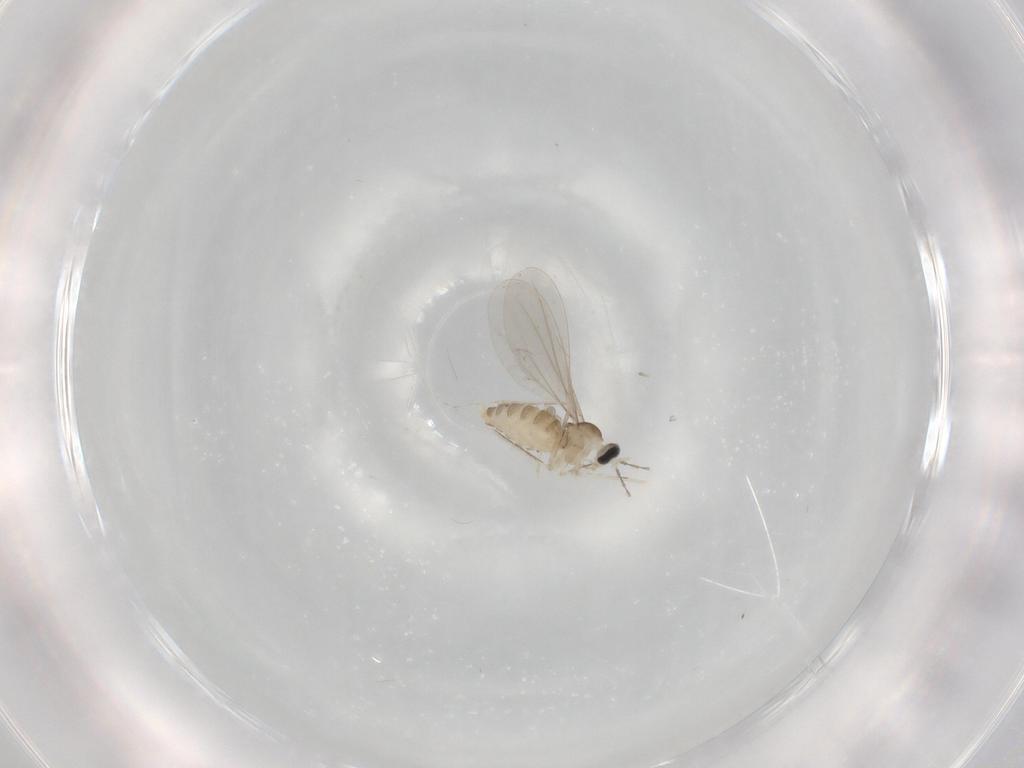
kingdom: Animalia
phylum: Arthropoda
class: Insecta
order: Diptera
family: Cecidomyiidae
